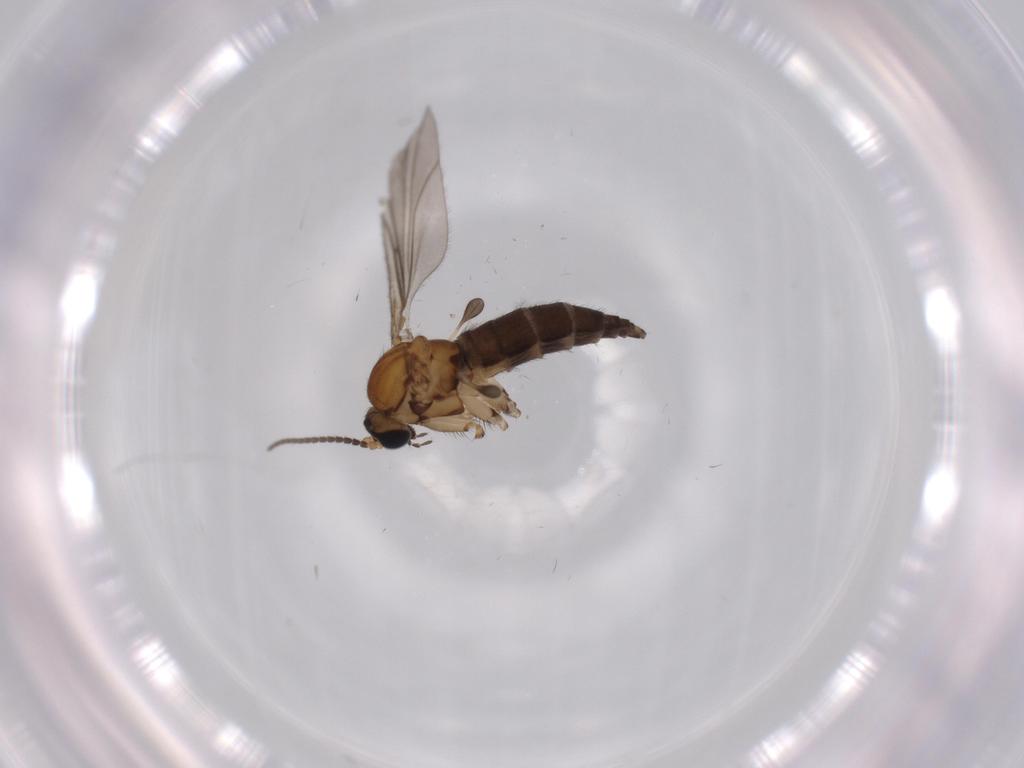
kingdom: Animalia
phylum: Arthropoda
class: Insecta
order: Diptera
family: Sciaridae
